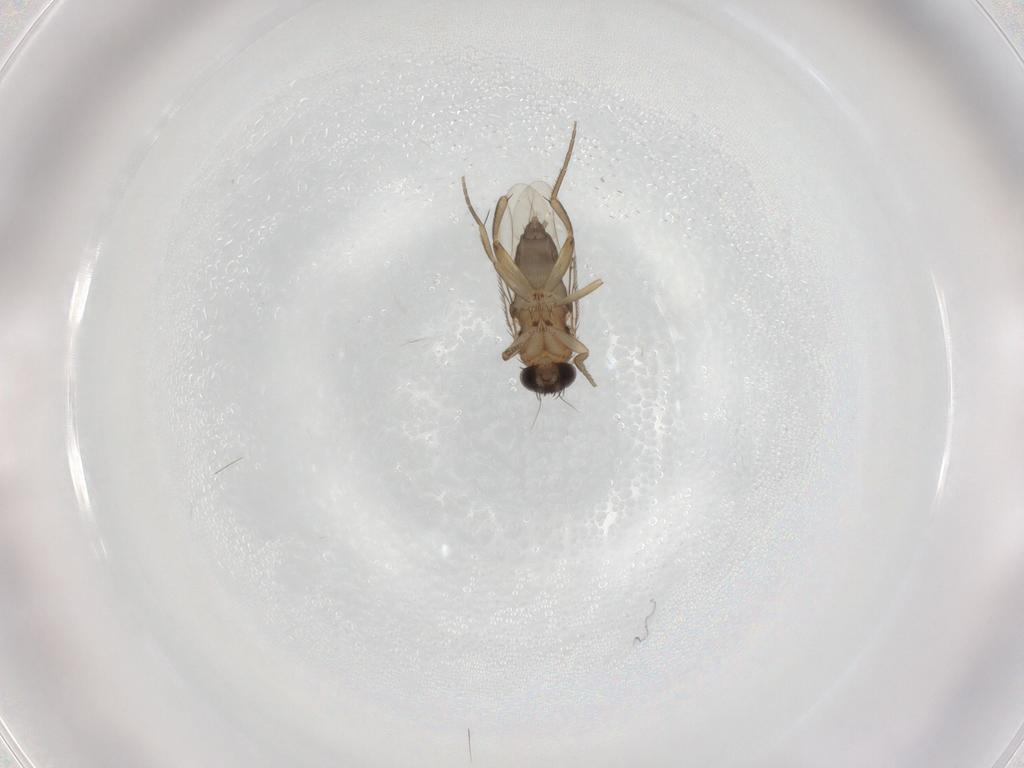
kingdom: Animalia
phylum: Arthropoda
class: Insecta
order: Diptera
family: Phoridae
